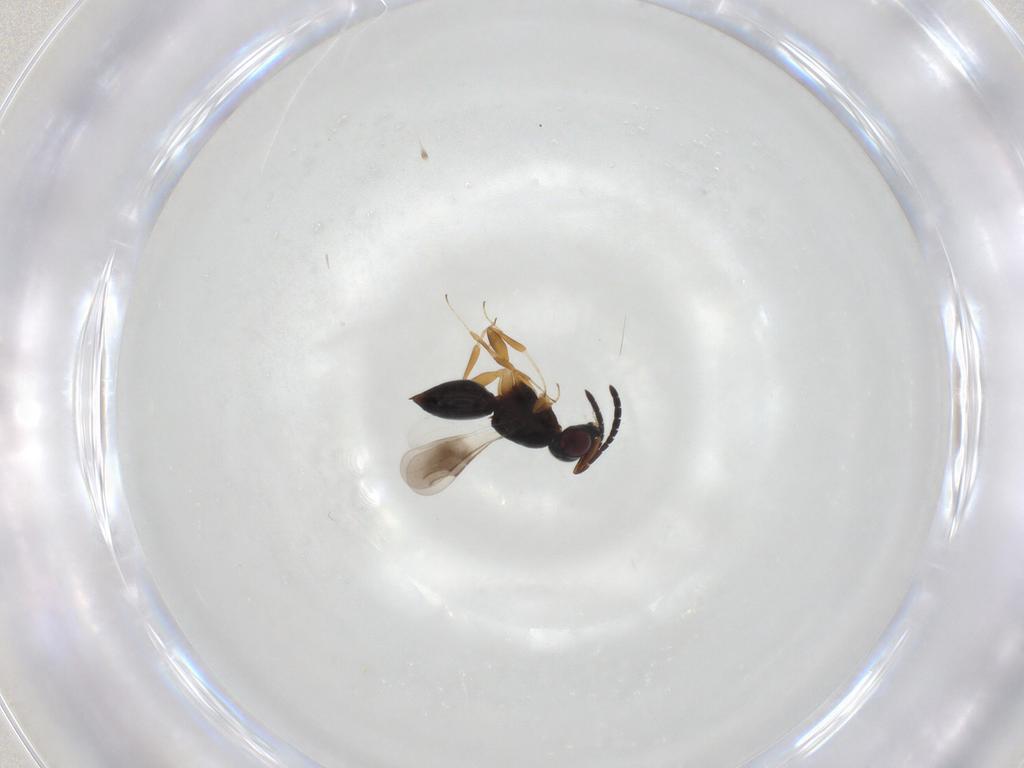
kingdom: Animalia
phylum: Arthropoda
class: Insecta
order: Hymenoptera
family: Ceraphronidae
